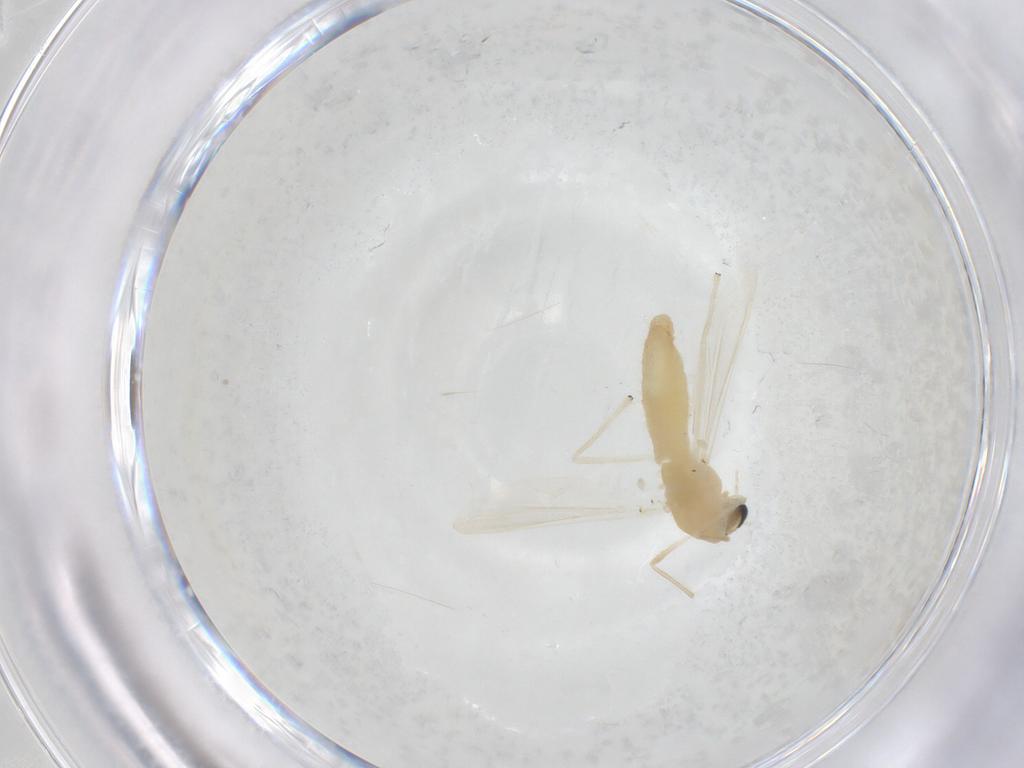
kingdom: Animalia
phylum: Arthropoda
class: Insecta
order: Diptera
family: Chironomidae
